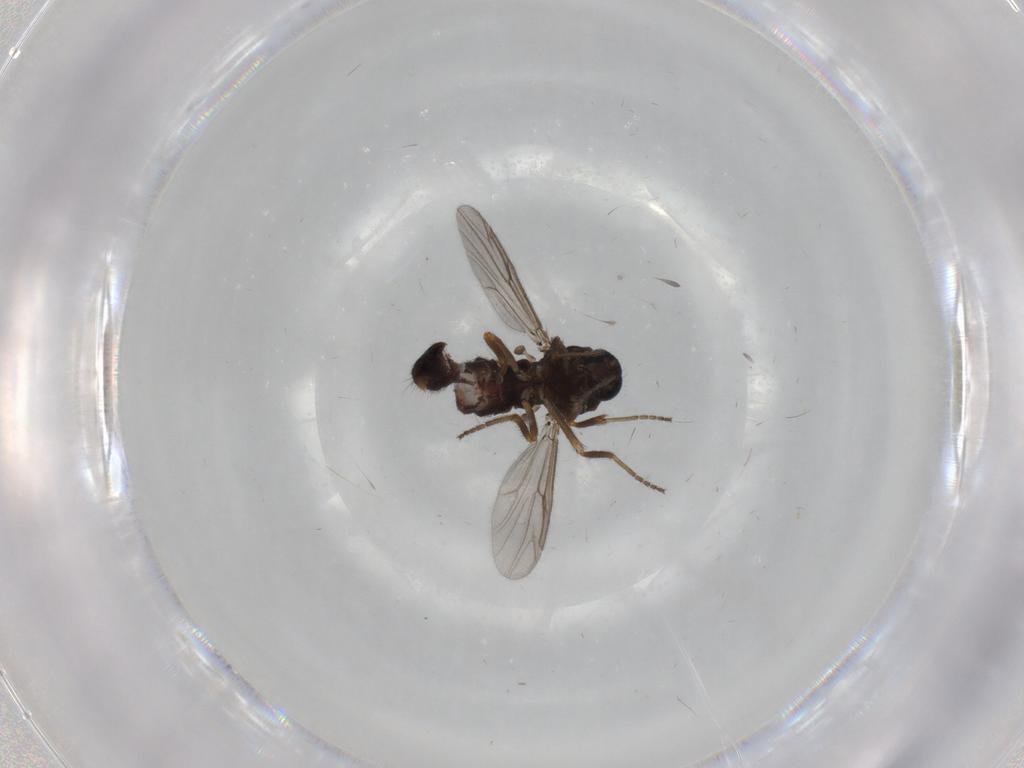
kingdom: Animalia
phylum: Arthropoda
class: Insecta
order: Diptera
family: Ceratopogonidae
